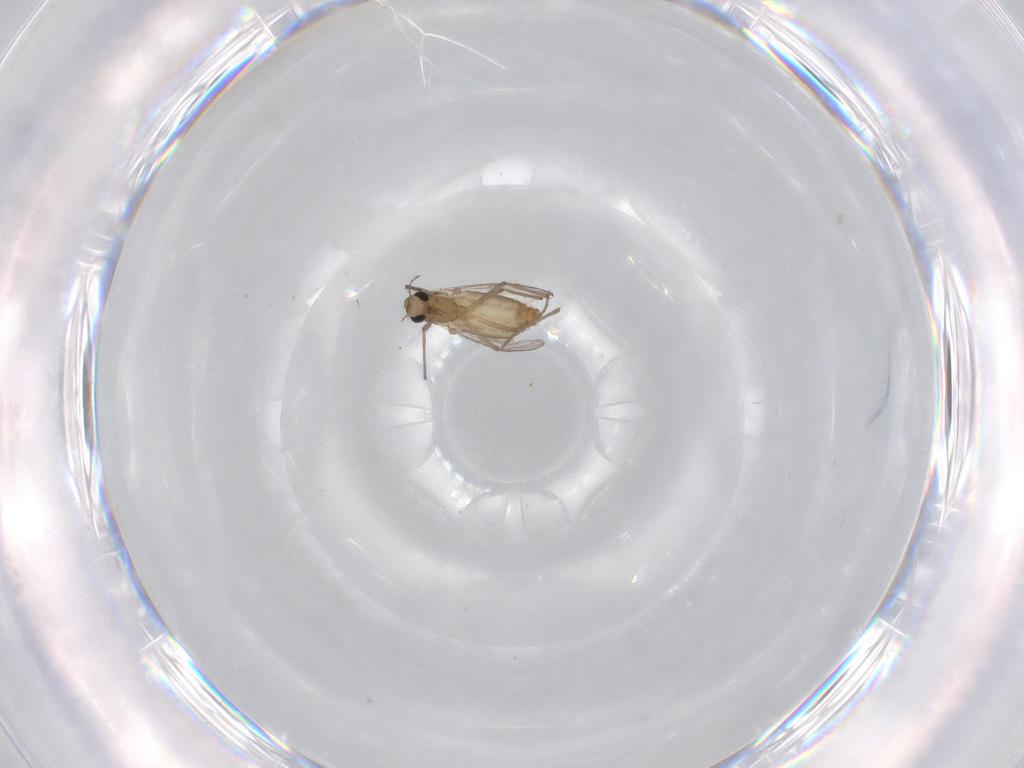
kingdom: Animalia
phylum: Arthropoda
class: Insecta
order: Diptera
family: Chironomidae
